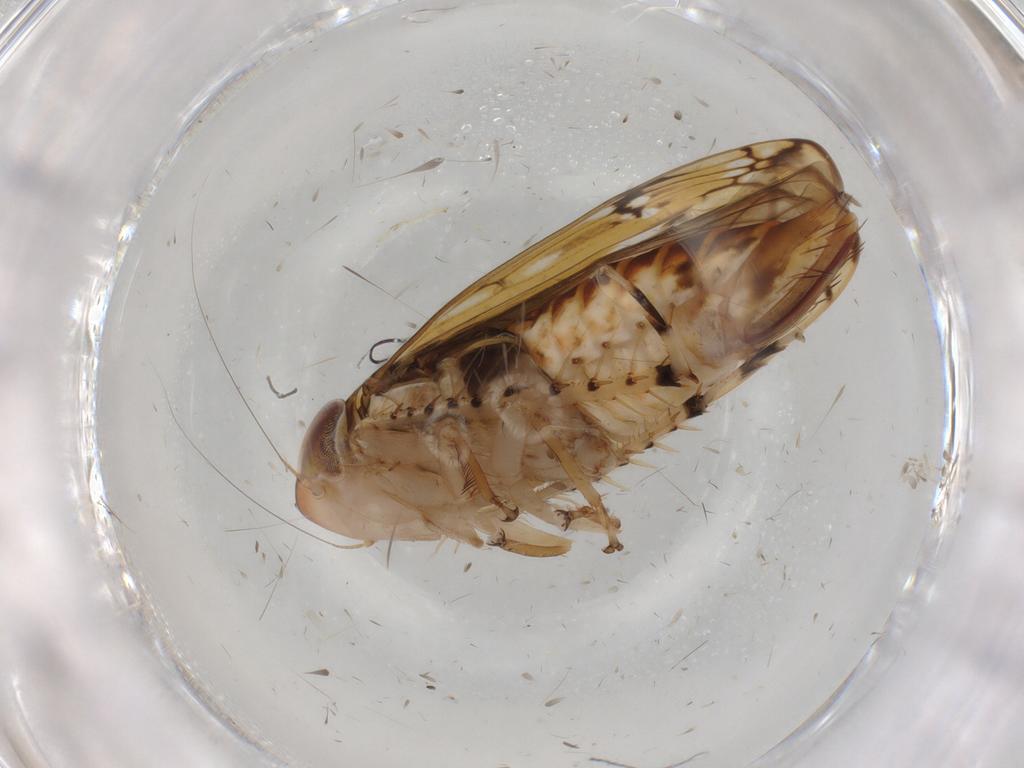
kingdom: Animalia
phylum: Arthropoda
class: Insecta
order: Hemiptera
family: Cicadellidae
